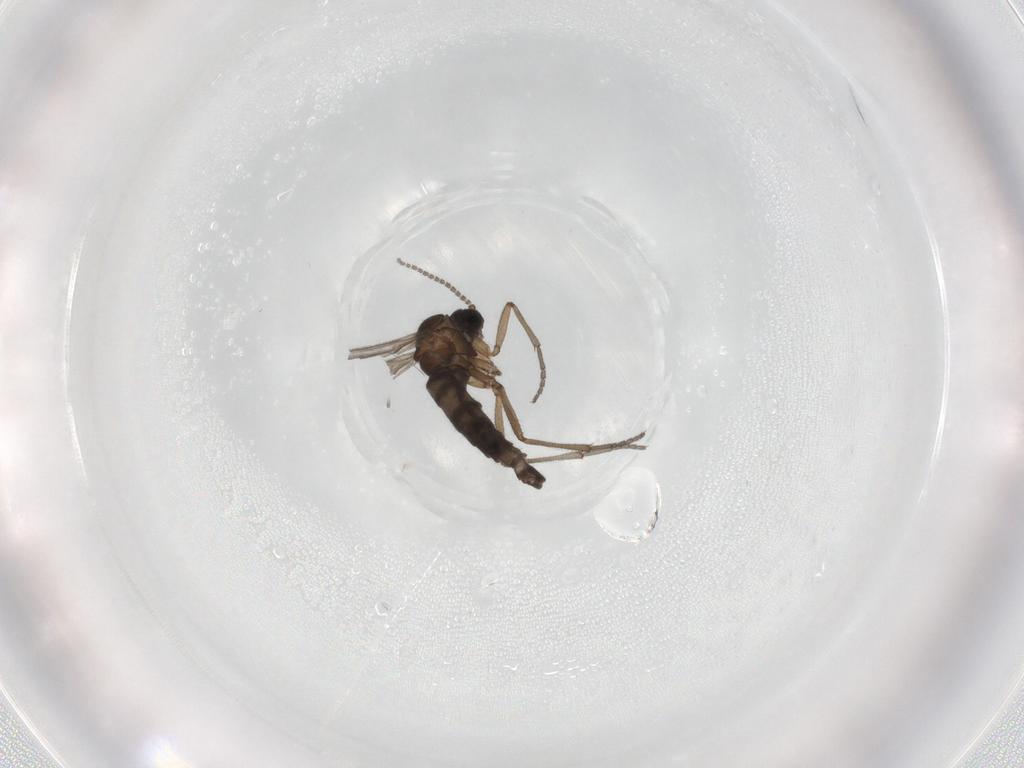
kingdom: Animalia
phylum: Arthropoda
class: Insecta
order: Diptera
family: Sciaridae
